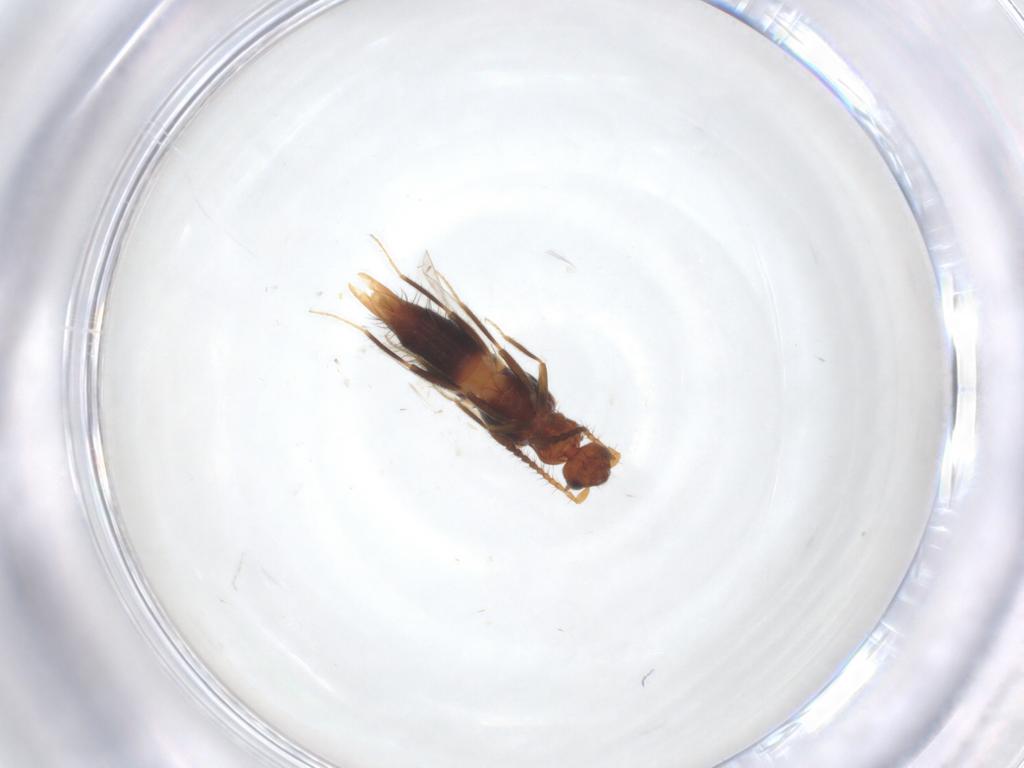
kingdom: Animalia
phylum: Arthropoda
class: Insecta
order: Coleoptera
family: Staphylinidae
